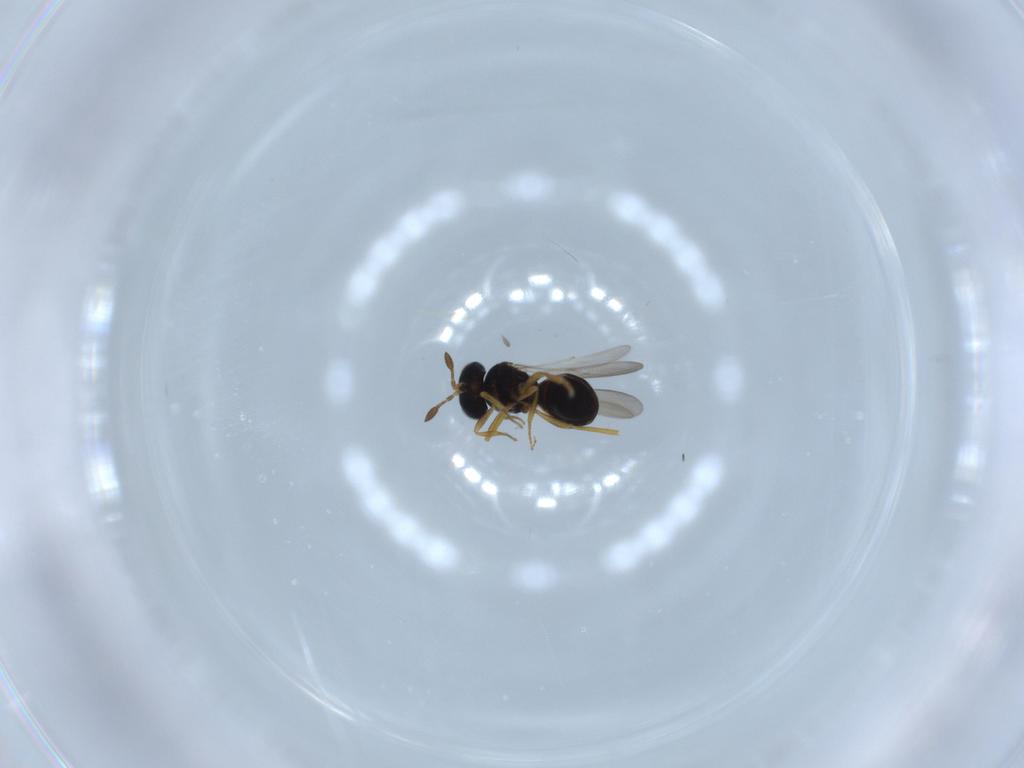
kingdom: Animalia
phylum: Arthropoda
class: Insecta
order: Hymenoptera
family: Scelionidae
